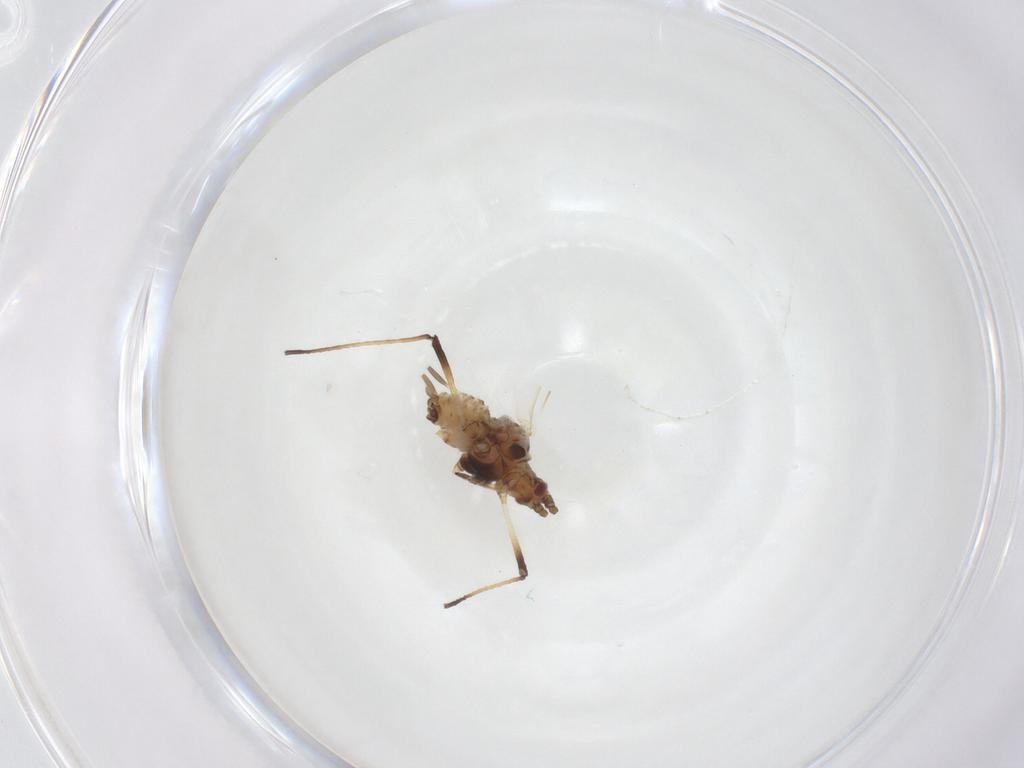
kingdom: Animalia
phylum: Arthropoda
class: Insecta
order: Hemiptera
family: Aphididae
